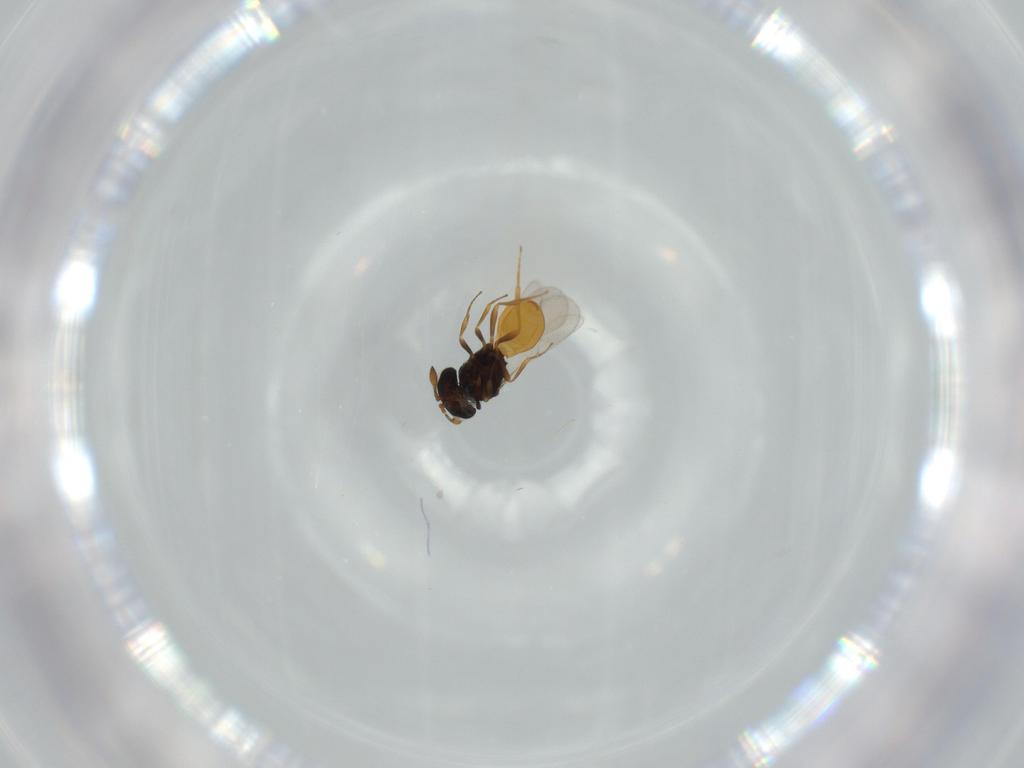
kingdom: Animalia
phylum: Arthropoda
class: Insecta
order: Hymenoptera
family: Scelionidae
